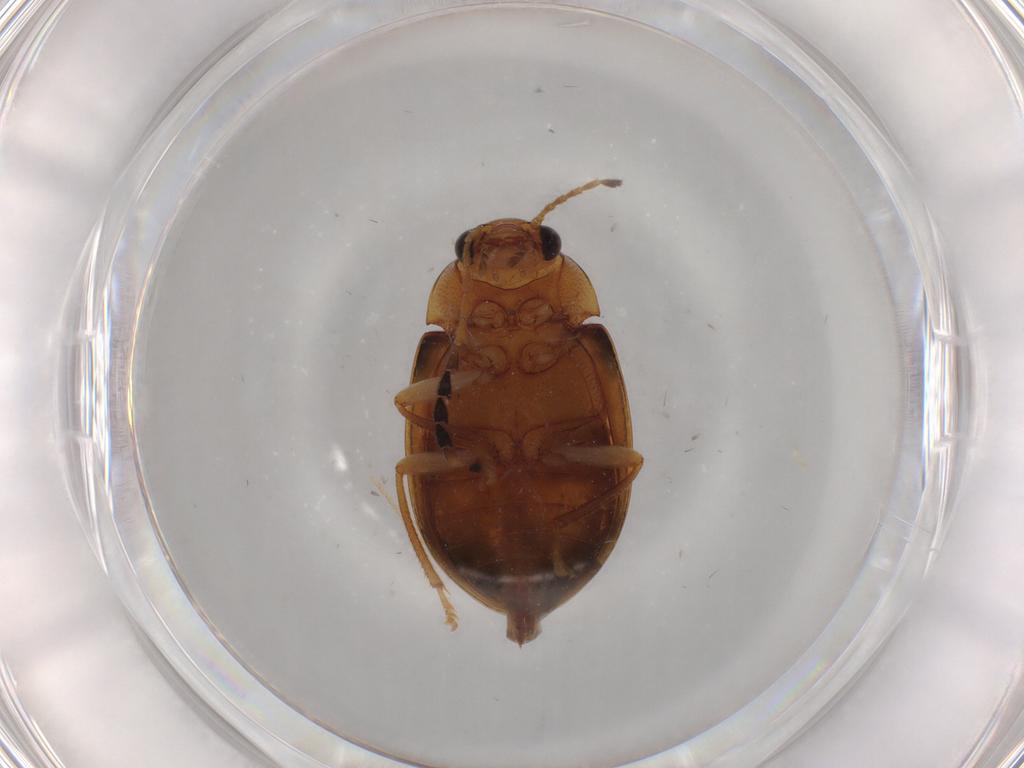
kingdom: Animalia
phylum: Arthropoda
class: Insecta
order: Coleoptera
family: Ptilodactylidae
